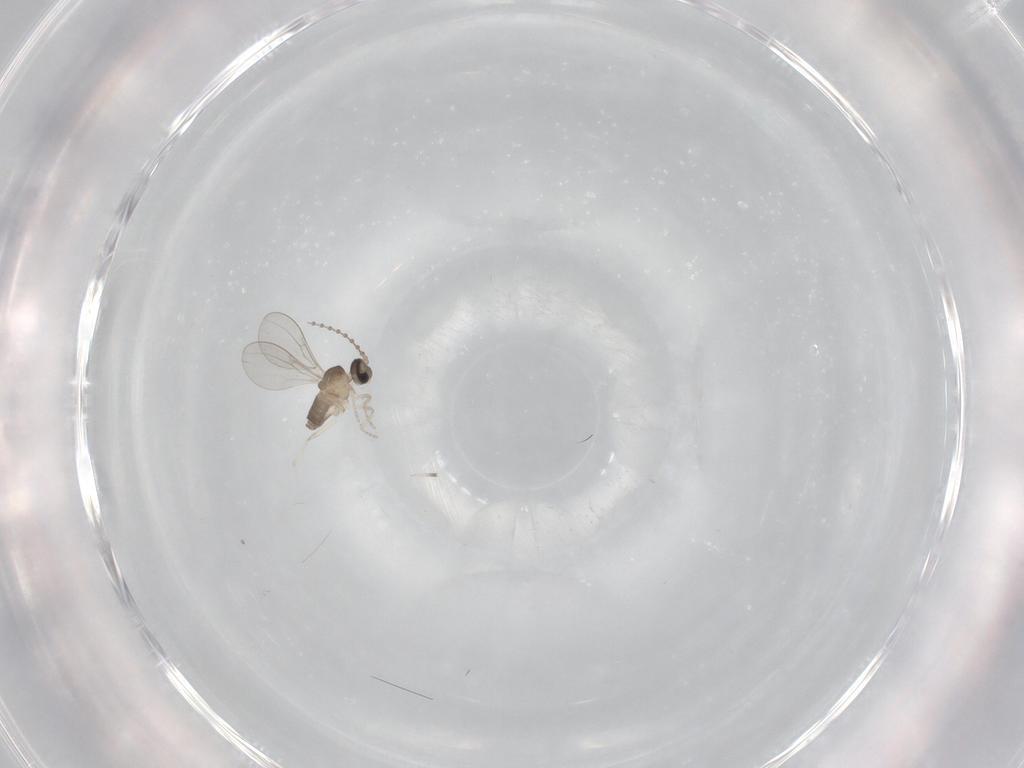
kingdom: Animalia
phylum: Arthropoda
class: Insecta
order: Diptera
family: Cecidomyiidae
